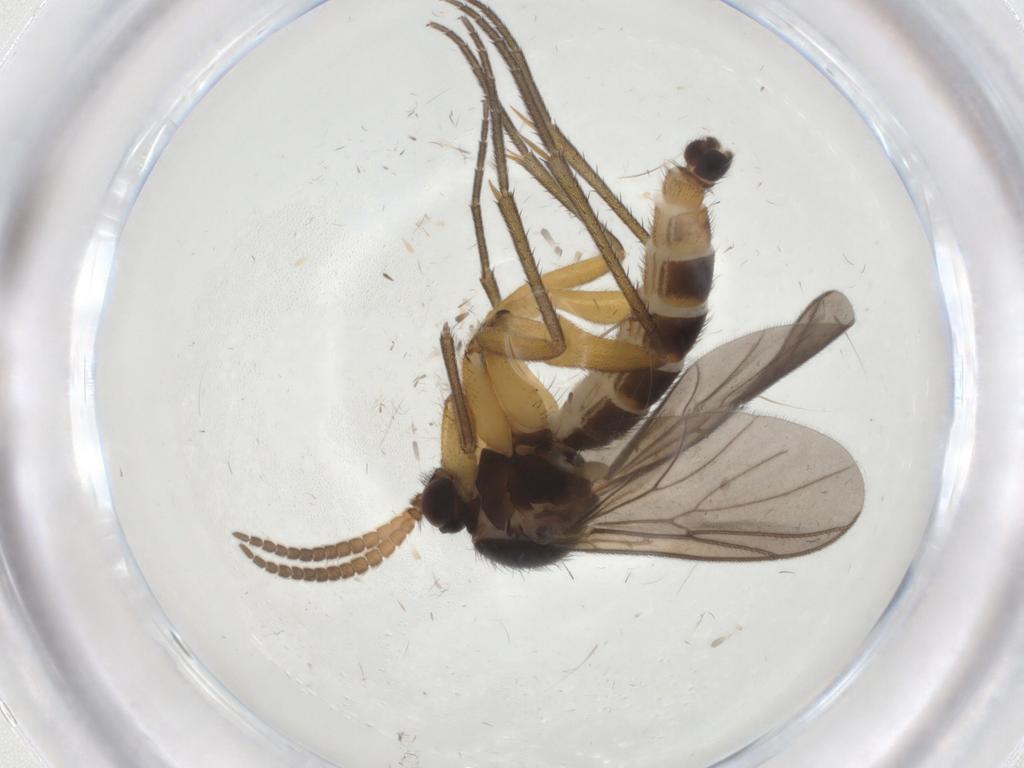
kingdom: Animalia
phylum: Arthropoda
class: Insecta
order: Diptera
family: Mycetophilidae
